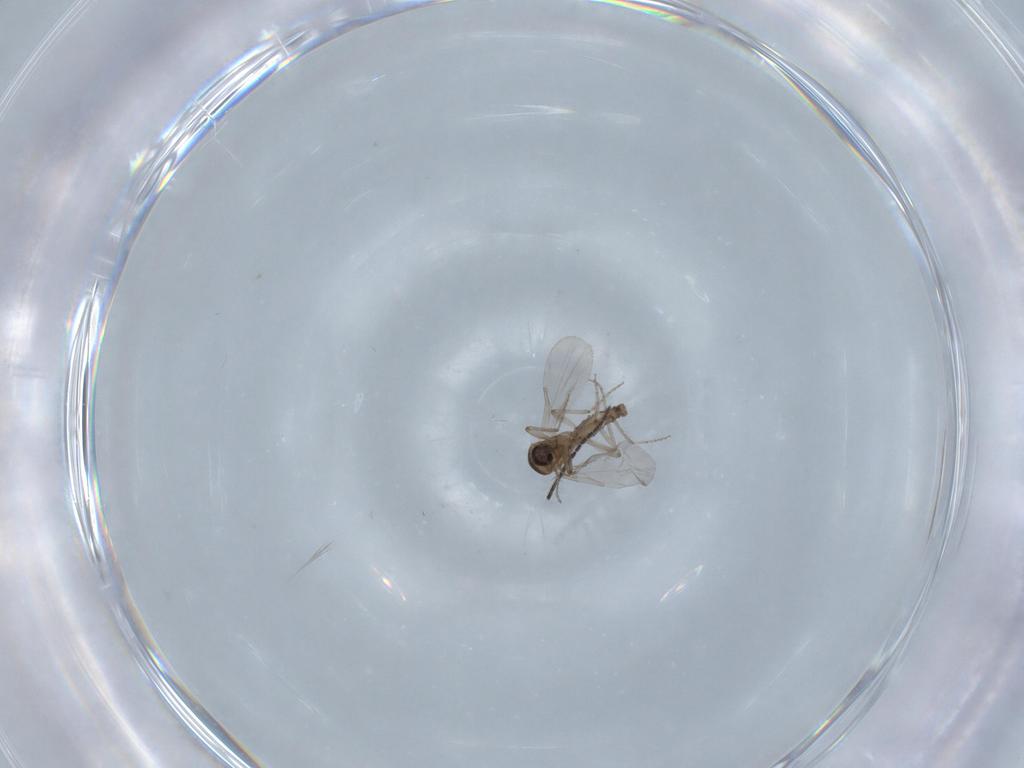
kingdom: Animalia
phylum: Arthropoda
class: Insecta
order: Diptera
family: Ceratopogonidae
